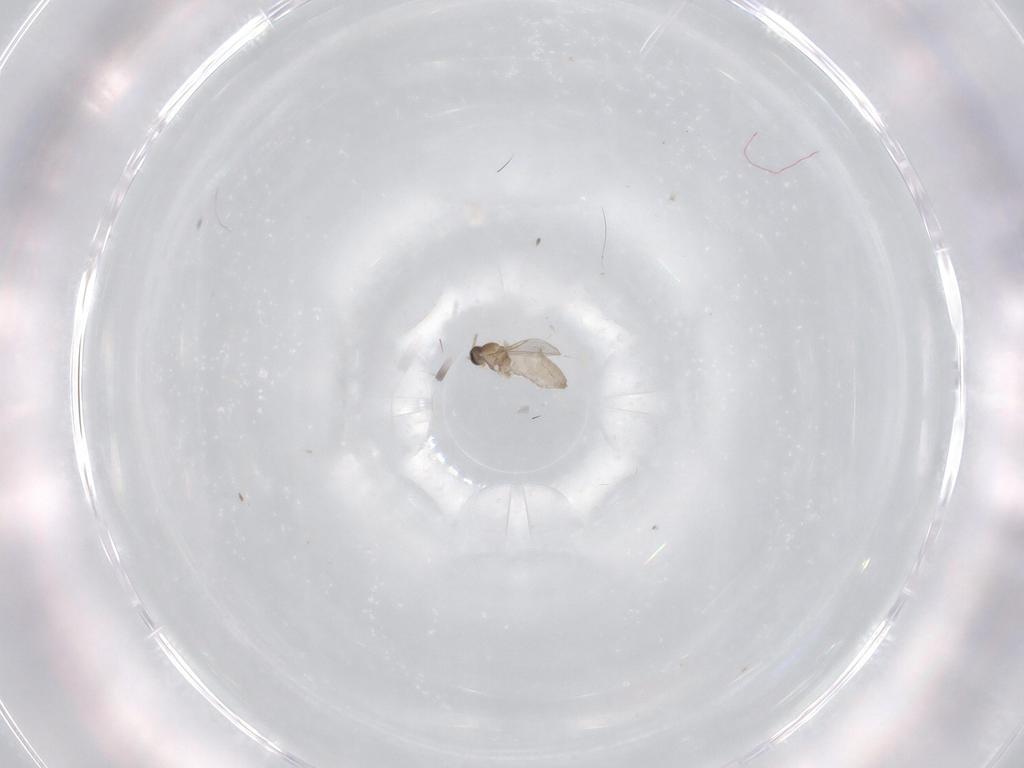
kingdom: Animalia
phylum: Arthropoda
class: Insecta
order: Diptera
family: Cecidomyiidae
